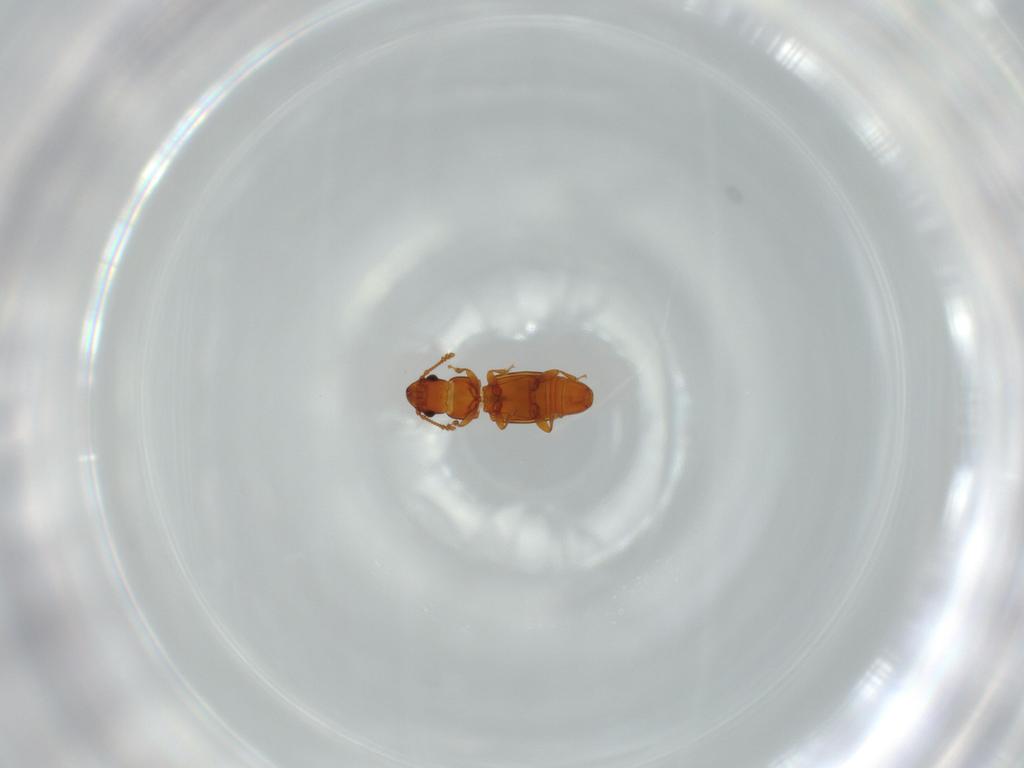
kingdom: Animalia
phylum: Arthropoda
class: Insecta
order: Coleoptera
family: Smicripidae
